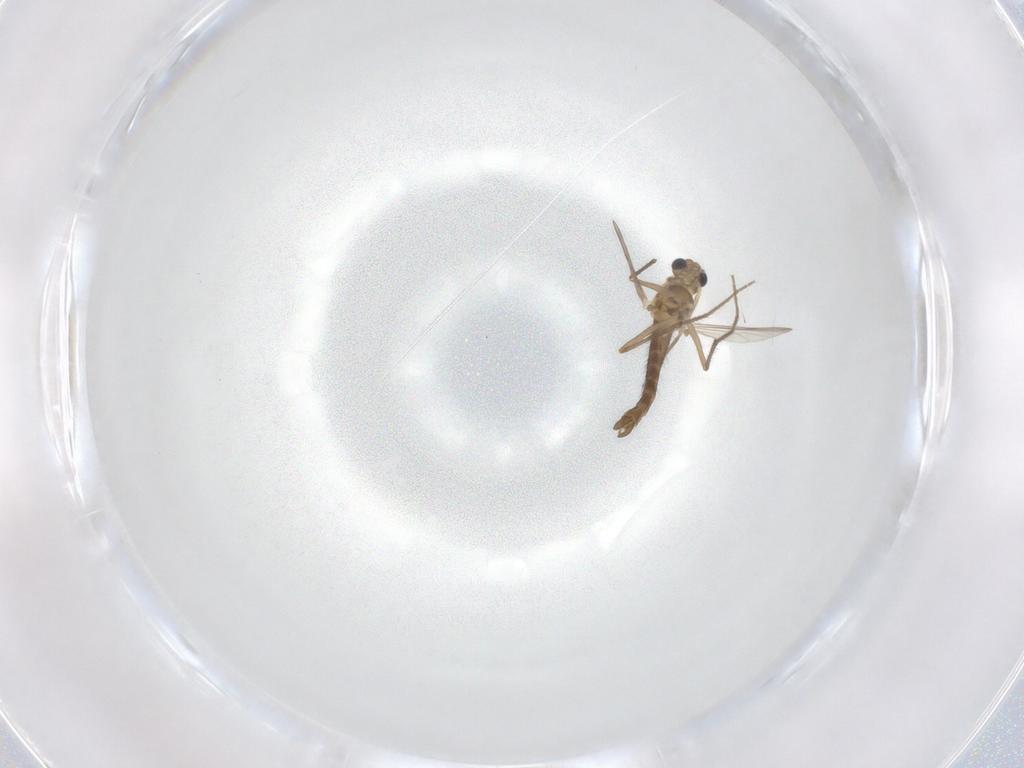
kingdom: Animalia
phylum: Arthropoda
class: Insecta
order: Diptera
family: Chironomidae
